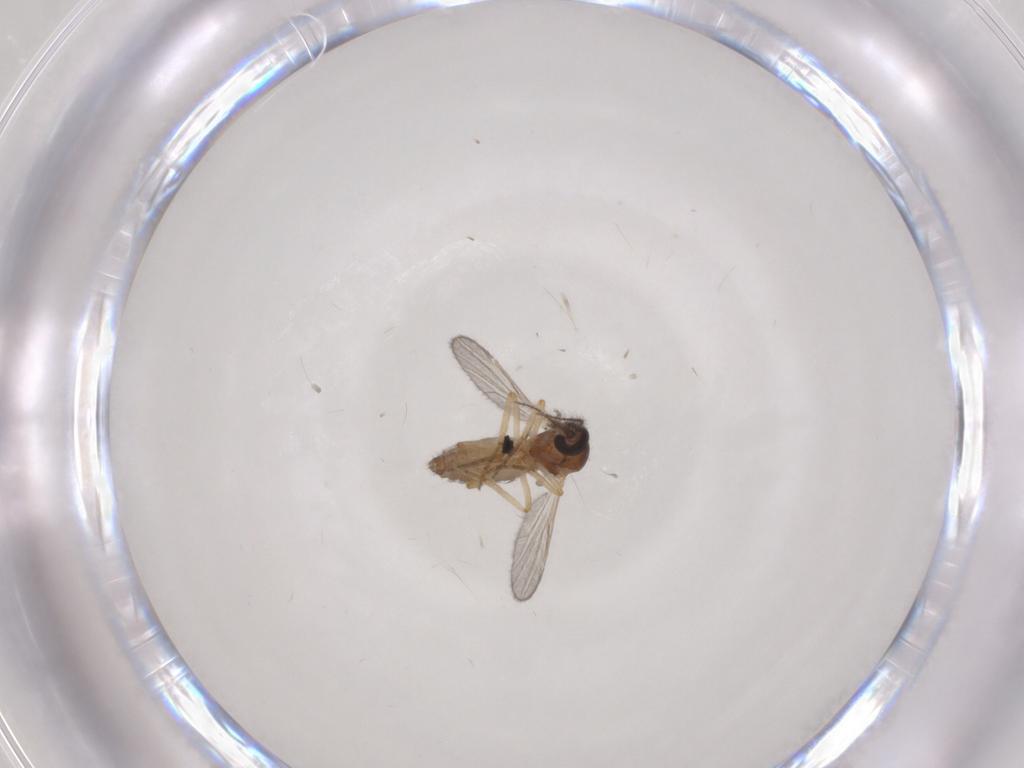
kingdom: Animalia
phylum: Arthropoda
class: Insecta
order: Diptera
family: Ceratopogonidae
